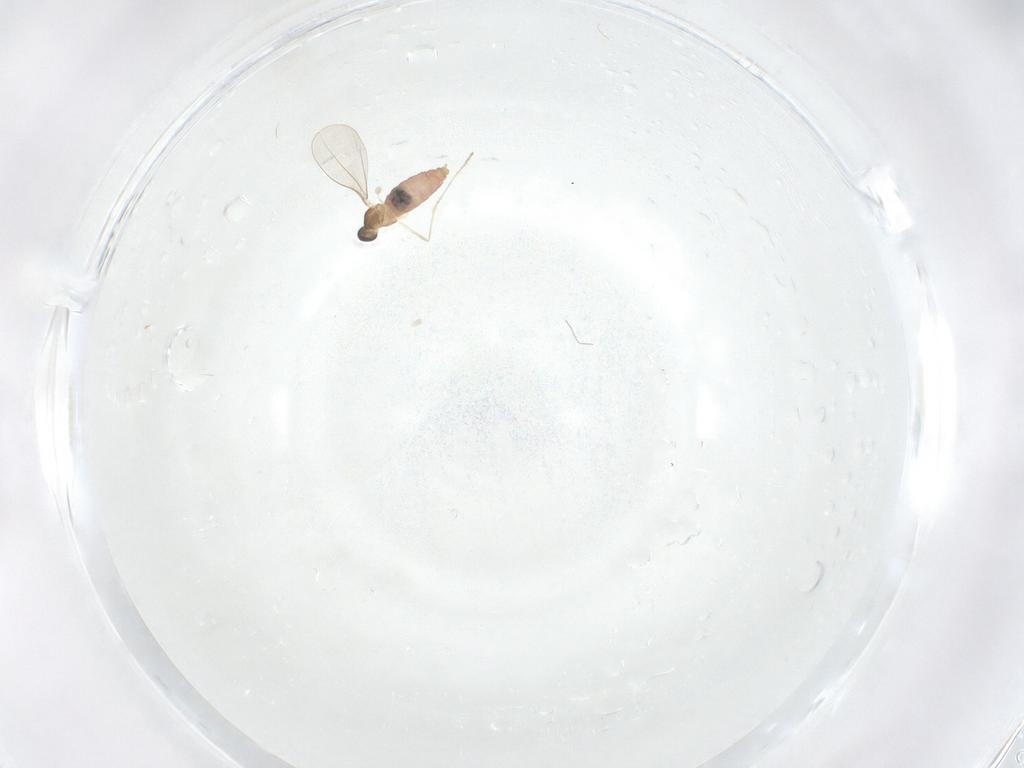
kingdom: Animalia
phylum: Arthropoda
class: Insecta
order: Diptera
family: Cecidomyiidae
